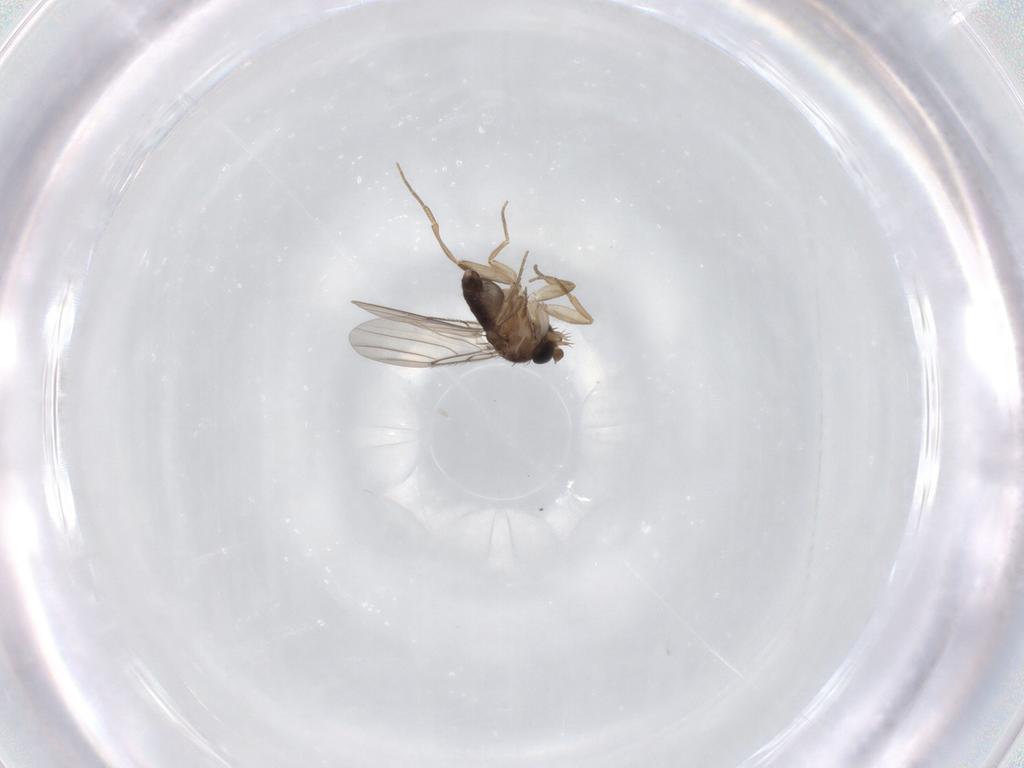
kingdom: Animalia
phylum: Arthropoda
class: Insecta
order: Diptera
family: Phoridae
